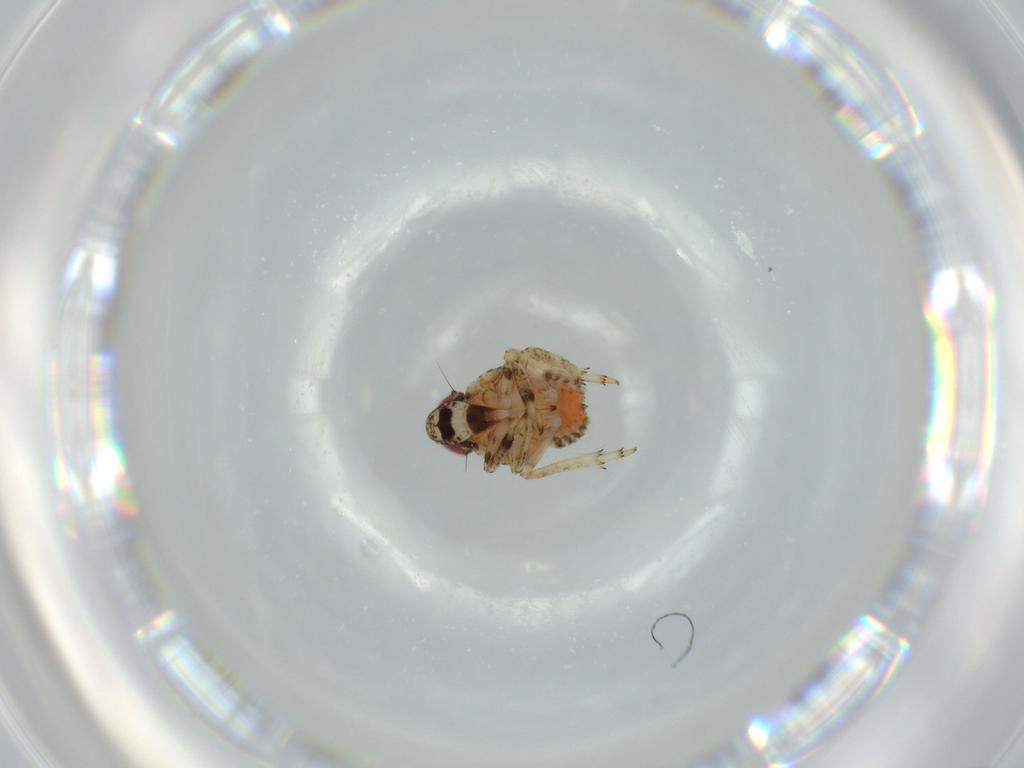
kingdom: Animalia
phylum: Arthropoda
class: Insecta
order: Hemiptera
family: Issidae
